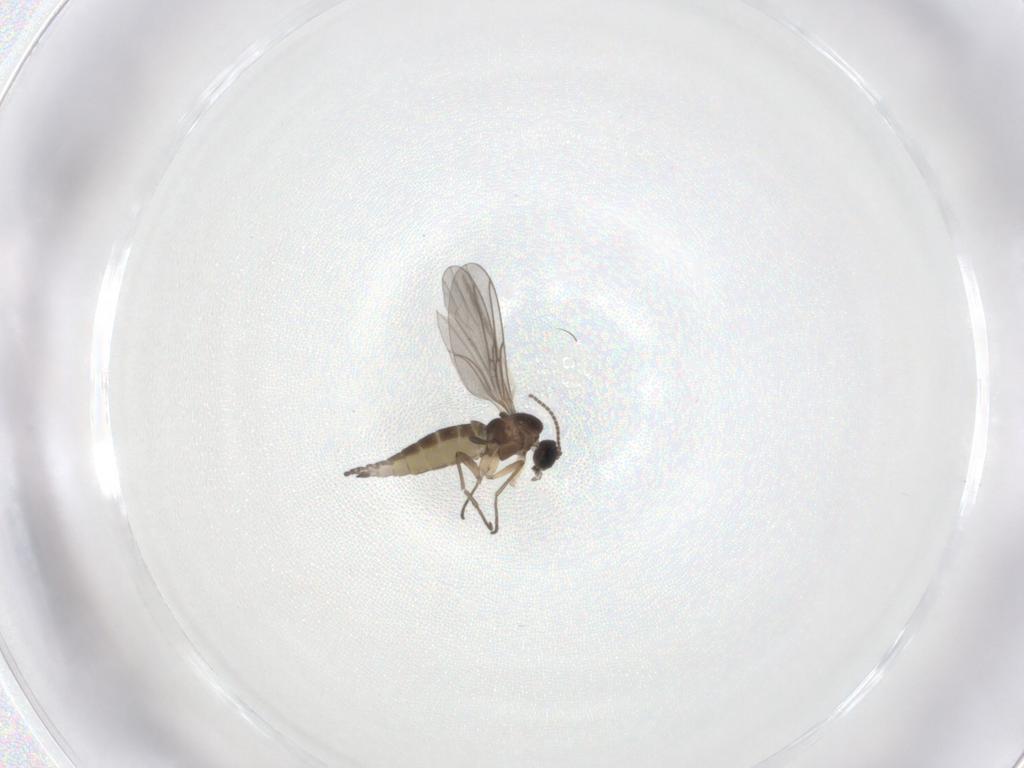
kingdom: Animalia
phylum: Arthropoda
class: Insecta
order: Diptera
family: Sciaridae
